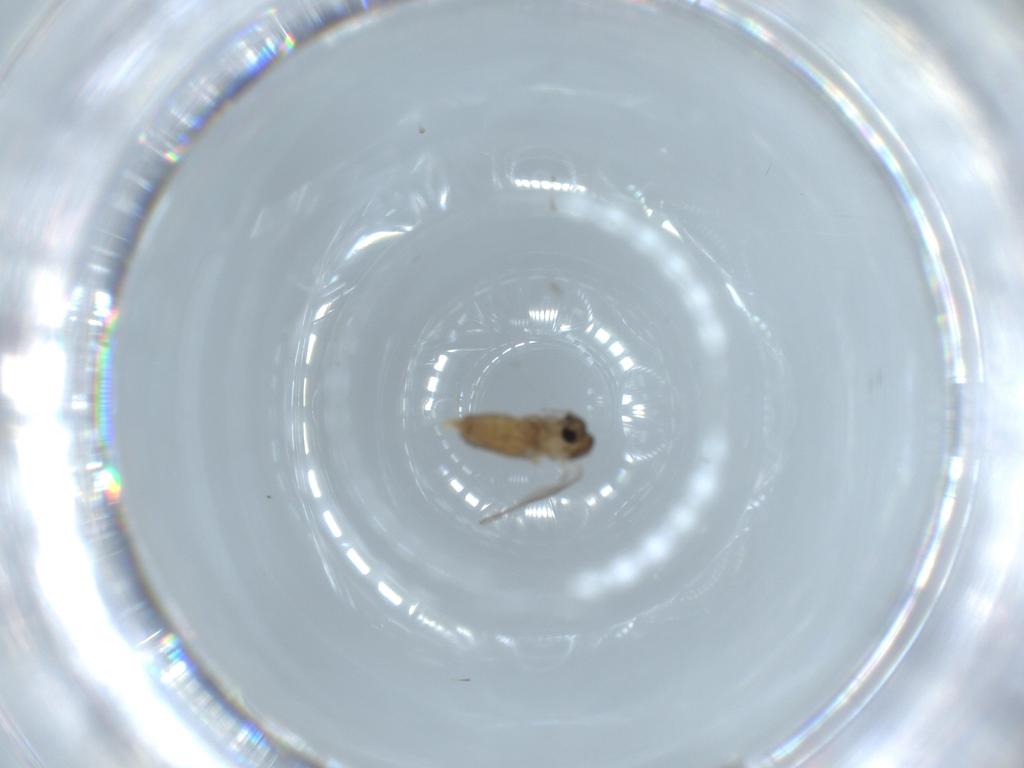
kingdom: Animalia
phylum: Arthropoda
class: Insecta
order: Diptera
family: Psychodidae
